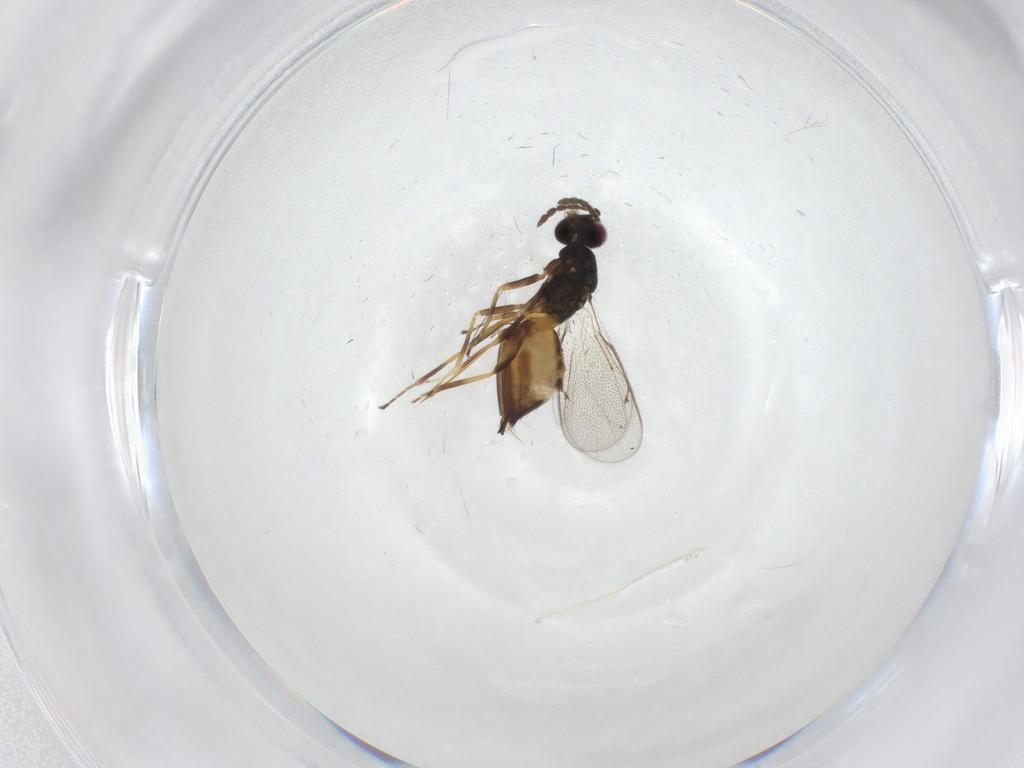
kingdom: Animalia
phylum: Arthropoda
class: Insecta
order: Hymenoptera
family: Eulophidae
